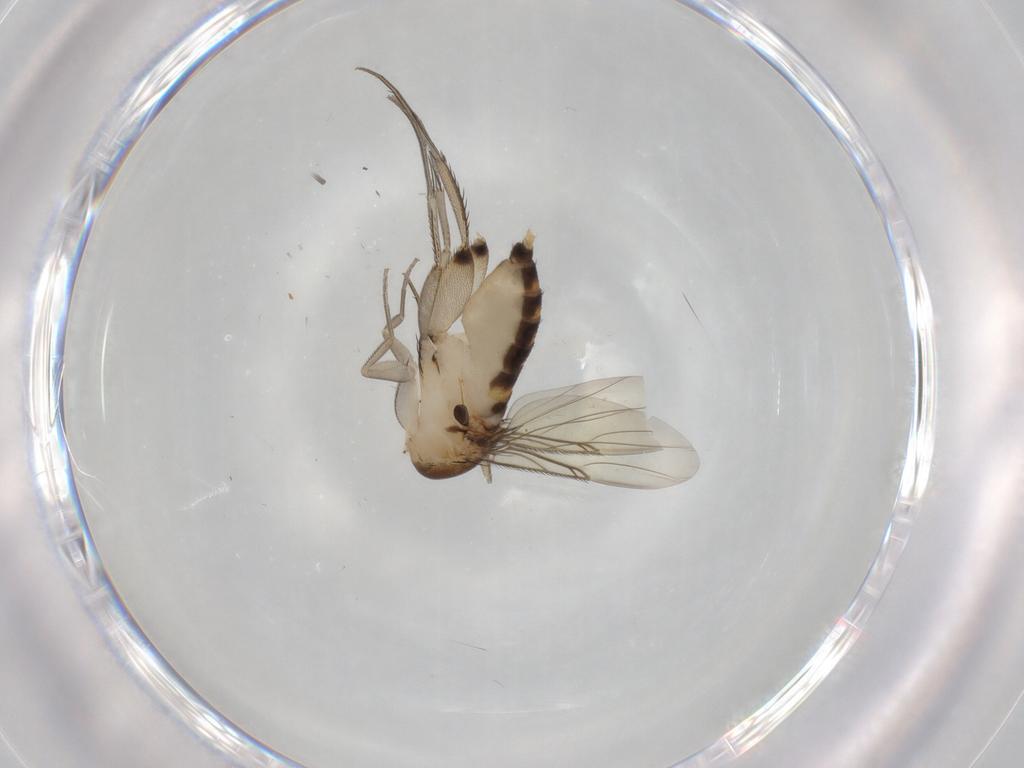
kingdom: Animalia
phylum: Arthropoda
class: Insecta
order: Diptera
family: Phoridae
